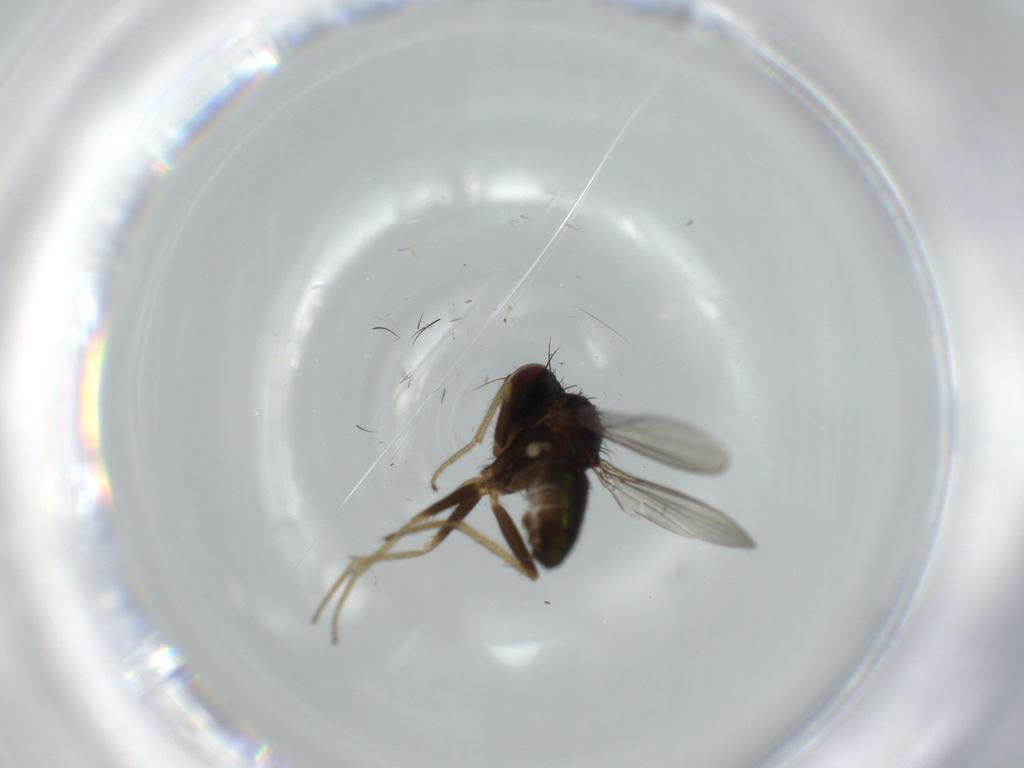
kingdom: Animalia
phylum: Arthropoda
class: Insecta
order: Diptera
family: Dolichopodidae
